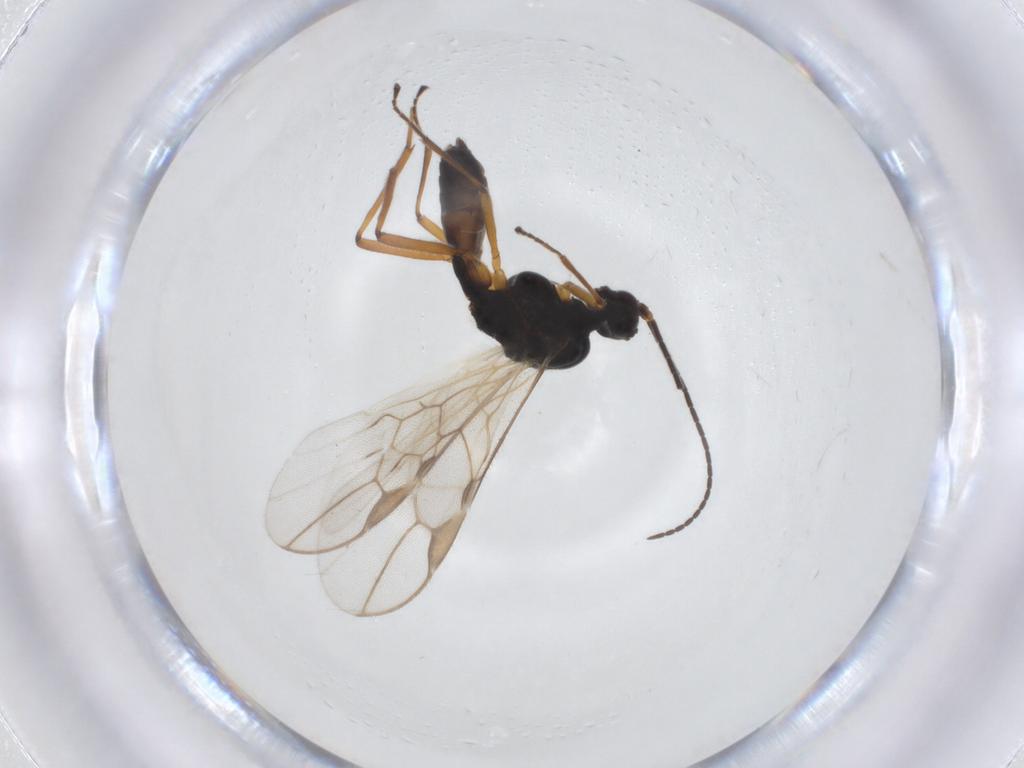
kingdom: Animalia
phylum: Arthropoda
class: Insecta
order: Hymenoptera
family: Braconidae
